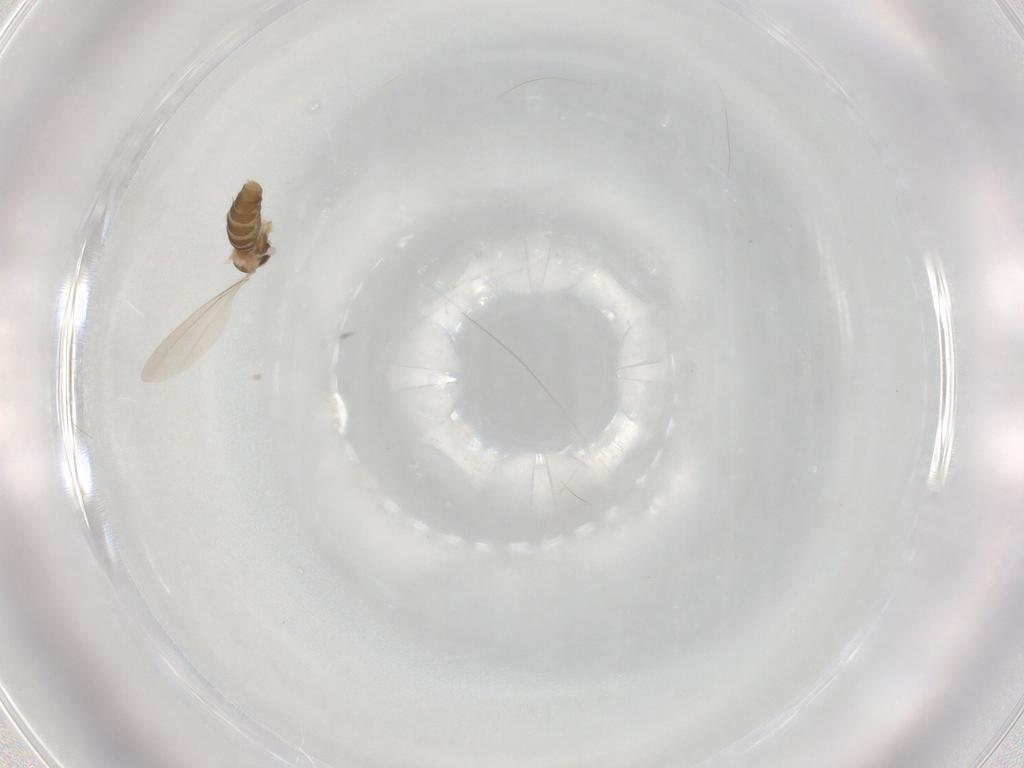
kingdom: Animalia
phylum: Arthropoda
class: Insecta
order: Diptera
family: Cecidomyiidae
